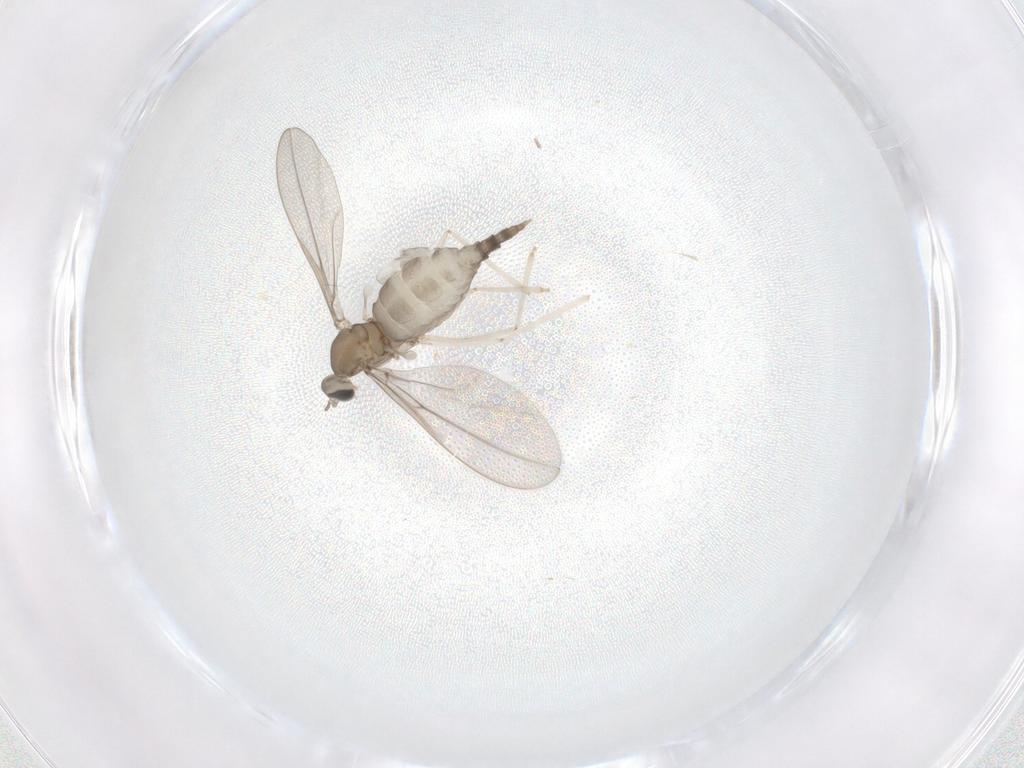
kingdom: Animalia
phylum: Arthropoda
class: Insecta
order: Diptera
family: Cecidomyiidae
